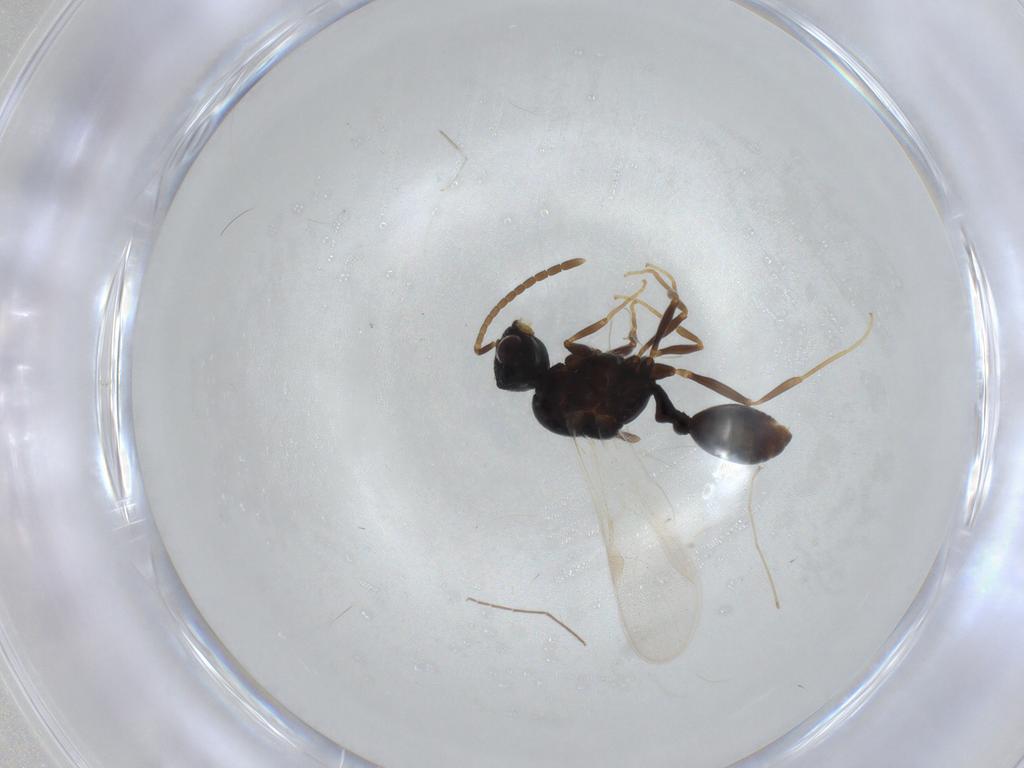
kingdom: Animalia
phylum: Arthropoda
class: Insecta
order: Hymenoptera
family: Formicidae
